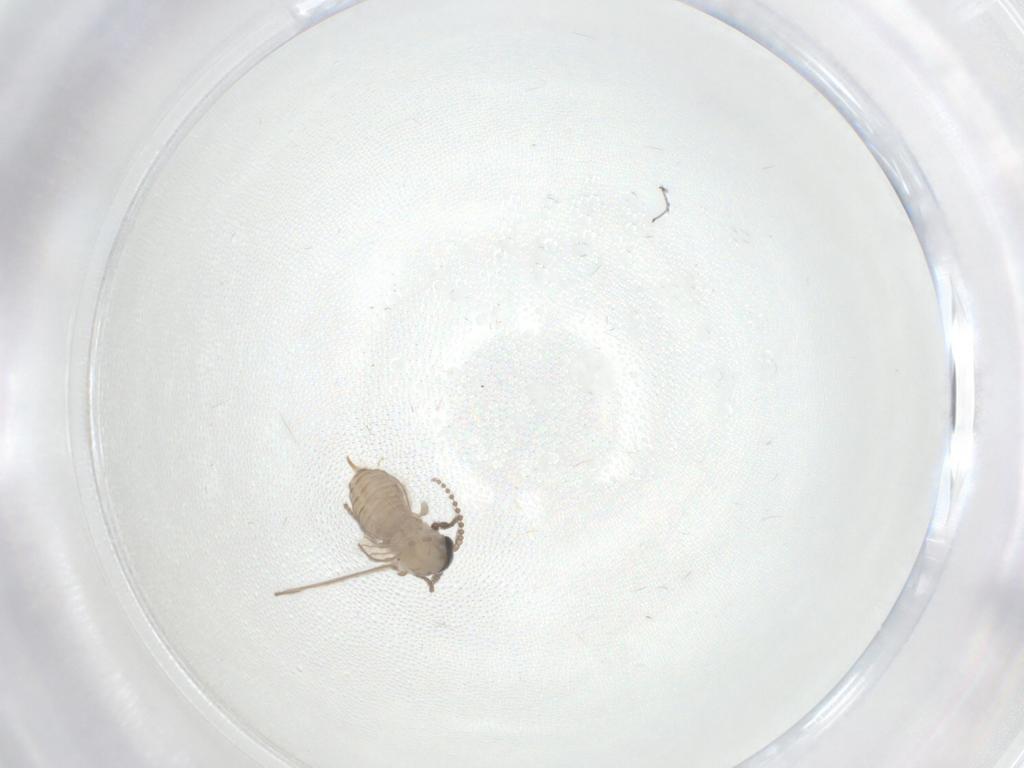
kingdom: Animalia
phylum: Arthropoda
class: Insecta
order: Diptera
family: Psychodidae
